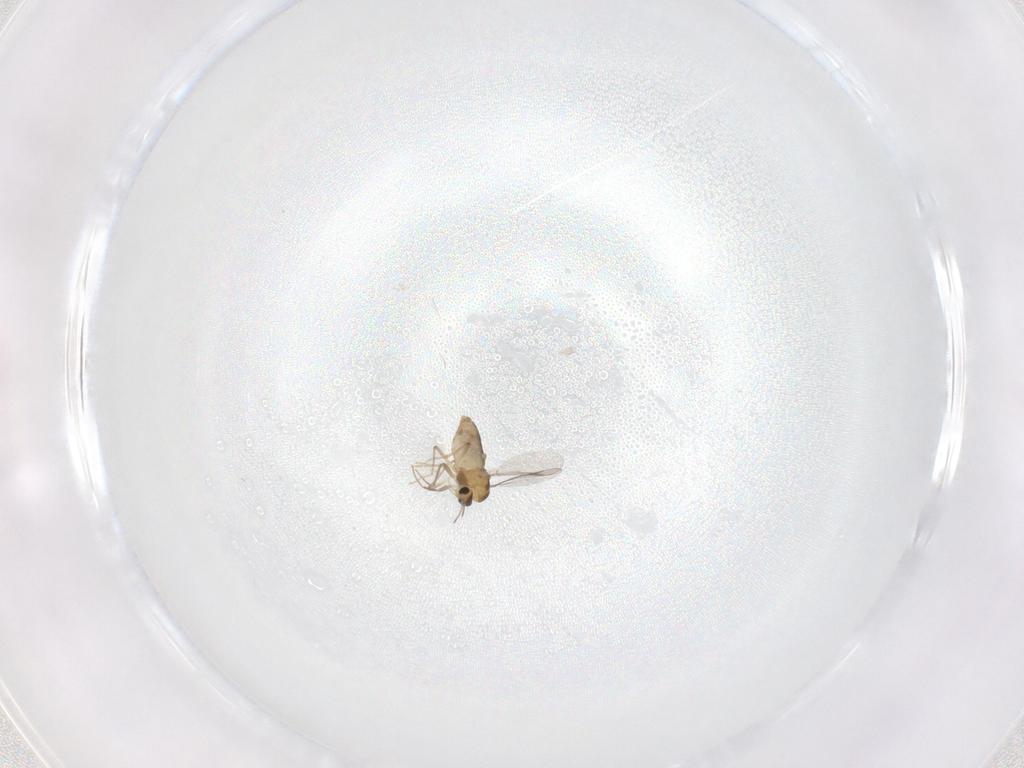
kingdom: Animalia
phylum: Arthropoda
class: Insecta
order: Diptera
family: Chironomidae
